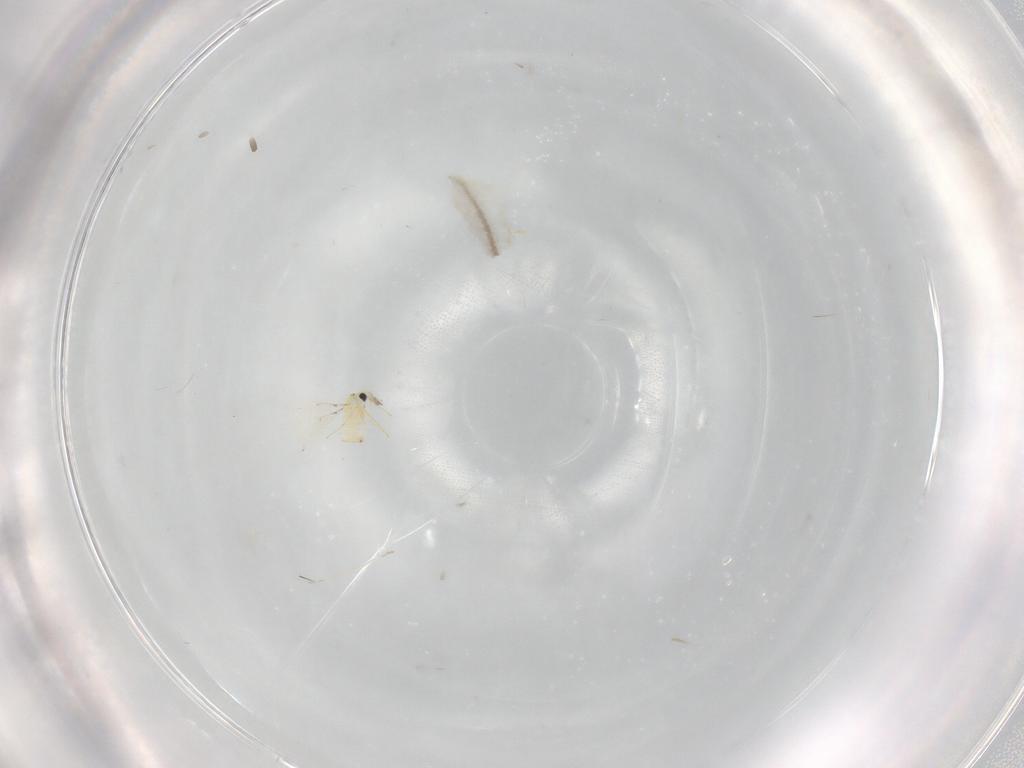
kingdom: Animalia
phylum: Arthropoda
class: Insecta
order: Hymenoptera
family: Trichogrammatidae
